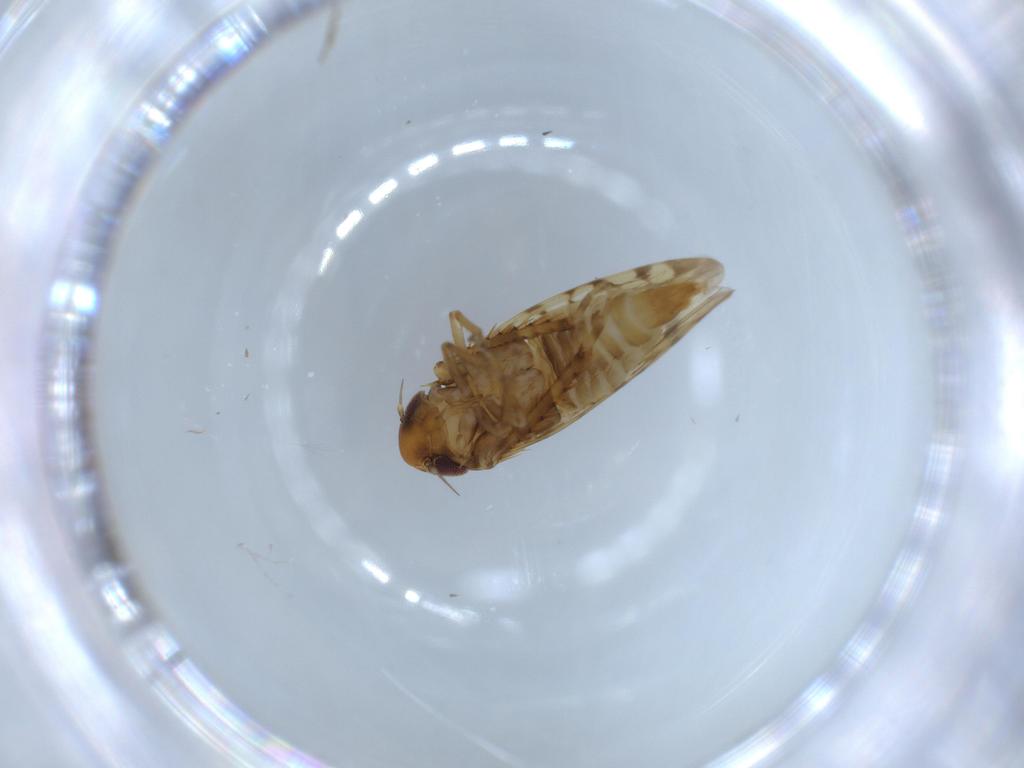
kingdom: Animalia
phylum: Arthropoda
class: Insecta
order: Hemiptera
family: Cicadellidae
